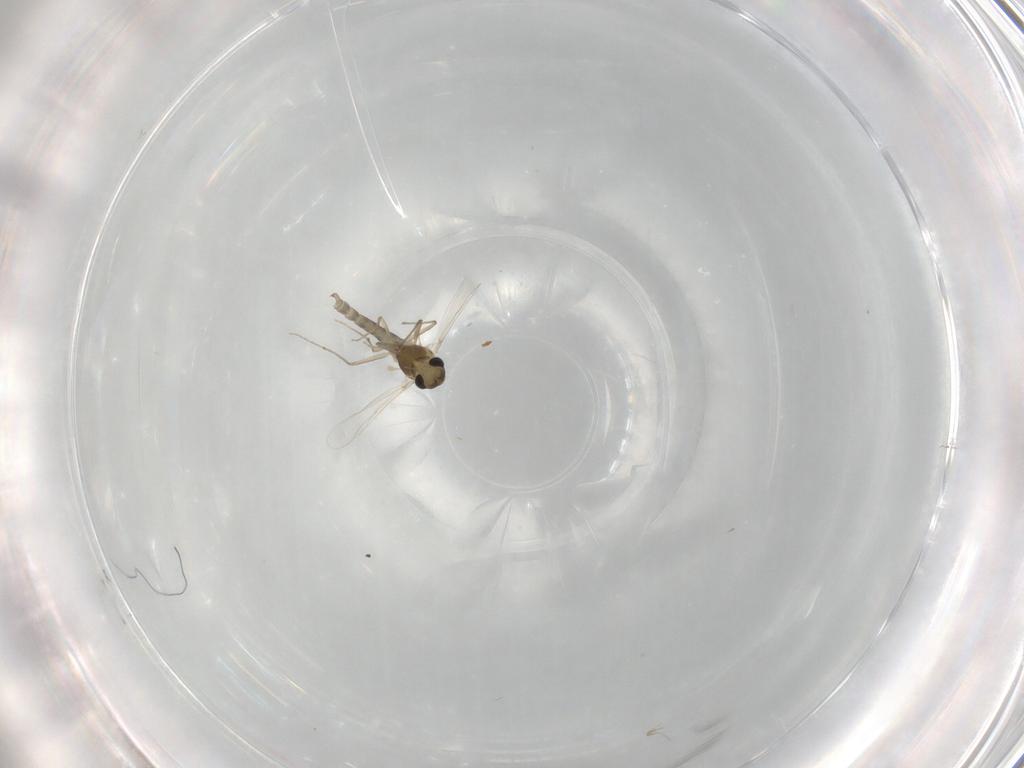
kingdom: Animalia
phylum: Arthropoda
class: Insecta
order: Diptera
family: Chironomidae
